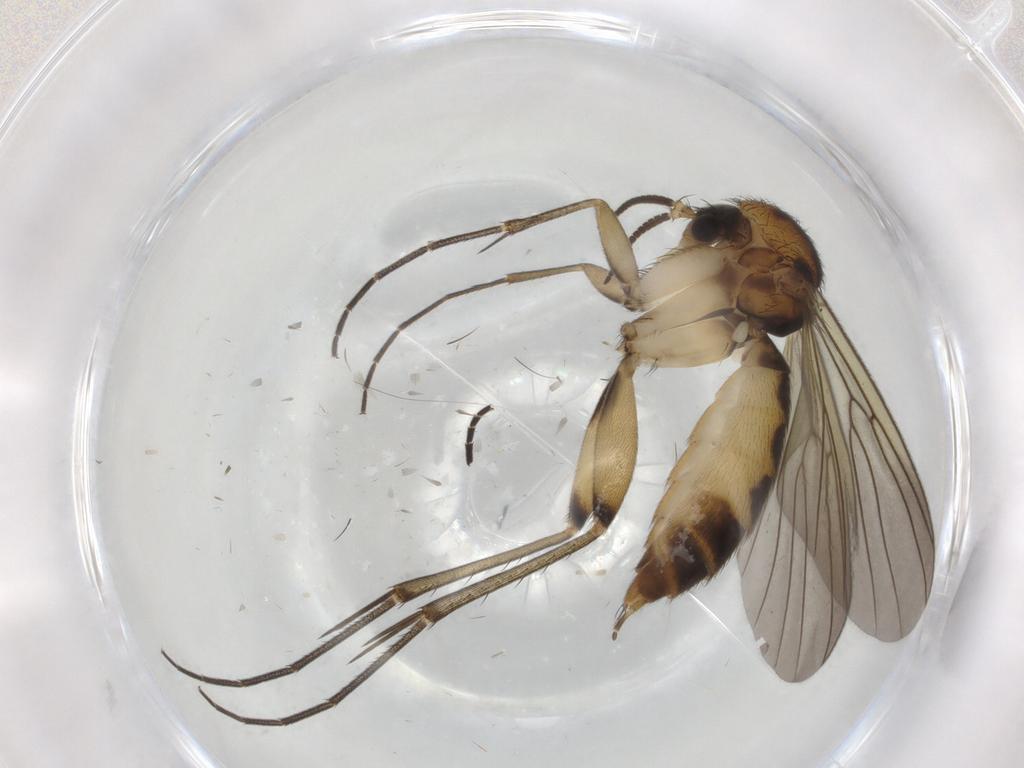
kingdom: Animalia
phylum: Arthropoda
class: Insecta
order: Diptera
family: Mycetophilidae
